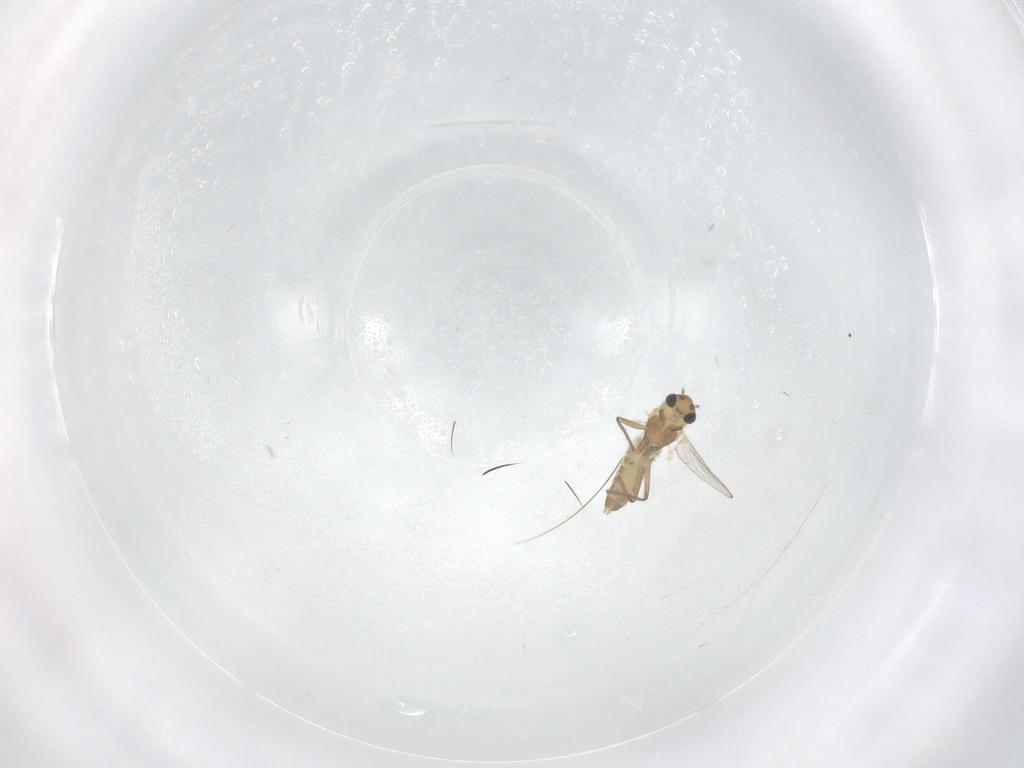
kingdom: Animalia
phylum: Arthropoda
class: Insecta
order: Diptera
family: Chironomidae
